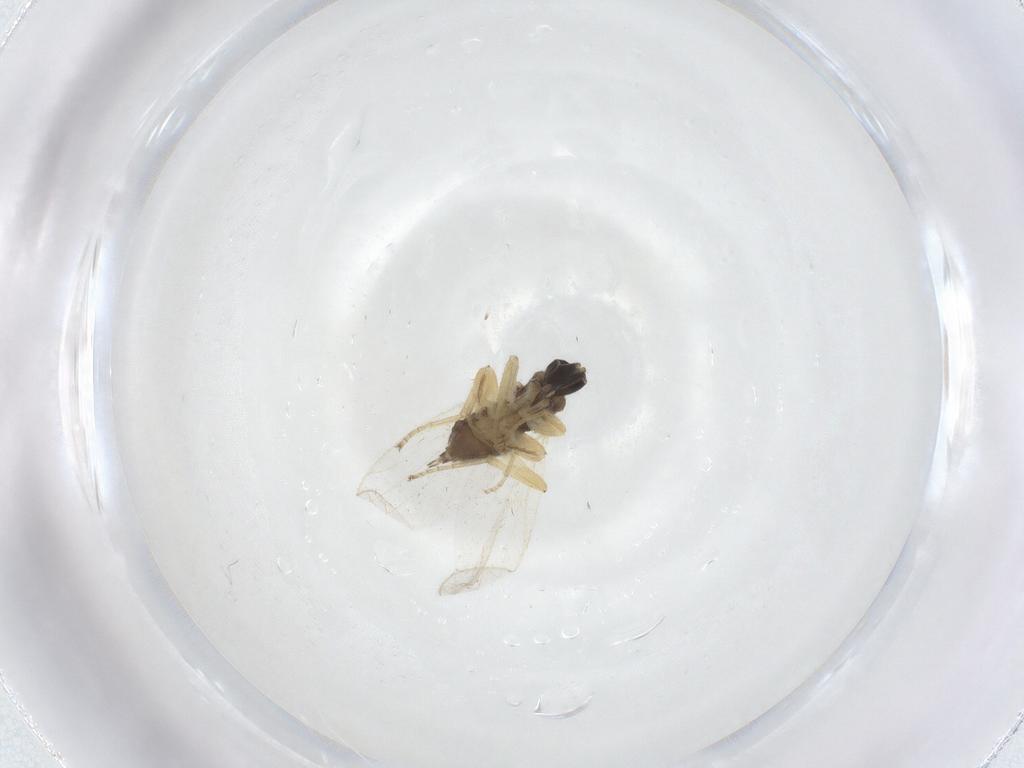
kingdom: Animalia
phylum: Arthropoda
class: Insecta
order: Diptera
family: Hybotidae
